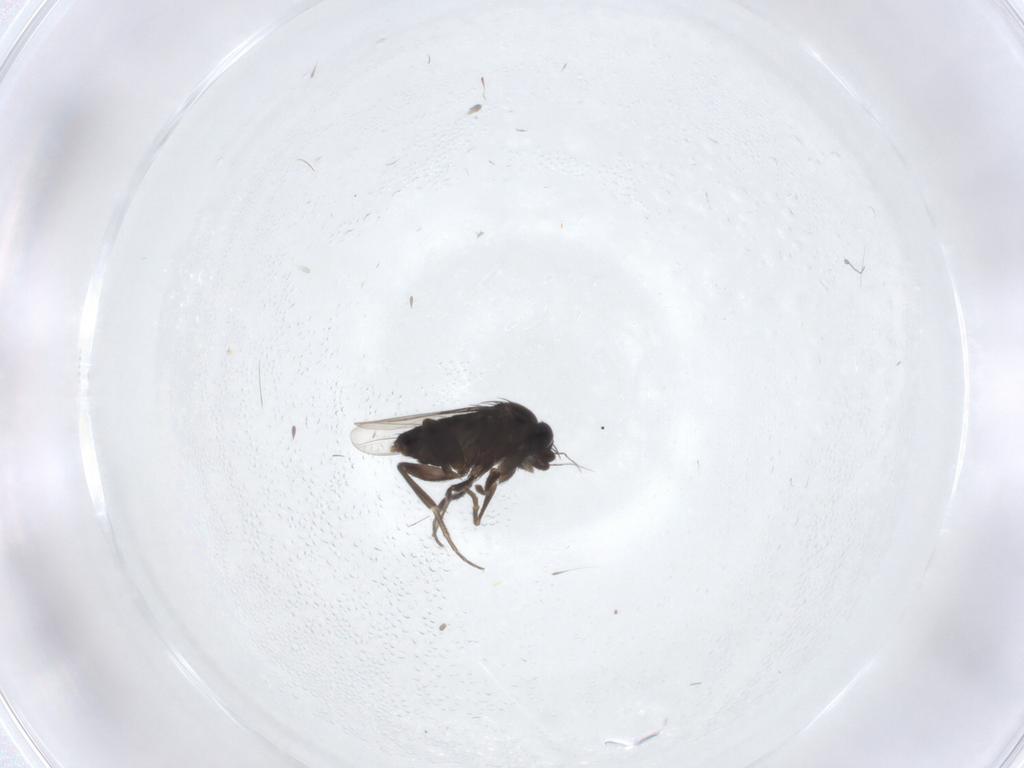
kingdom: Animalia
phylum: Arthropoda
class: Insecta
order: Diptera
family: Phoridae
